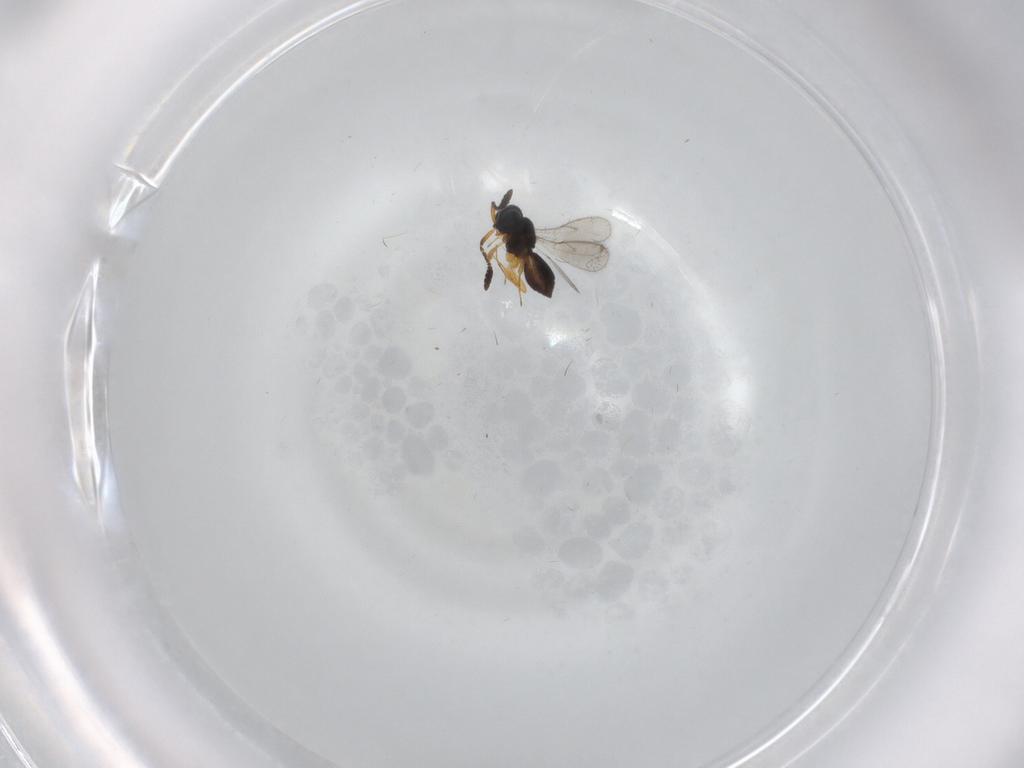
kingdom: Animalia
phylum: Arthropoda
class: Insecta
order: Hymenoptera
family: Scelionidae
